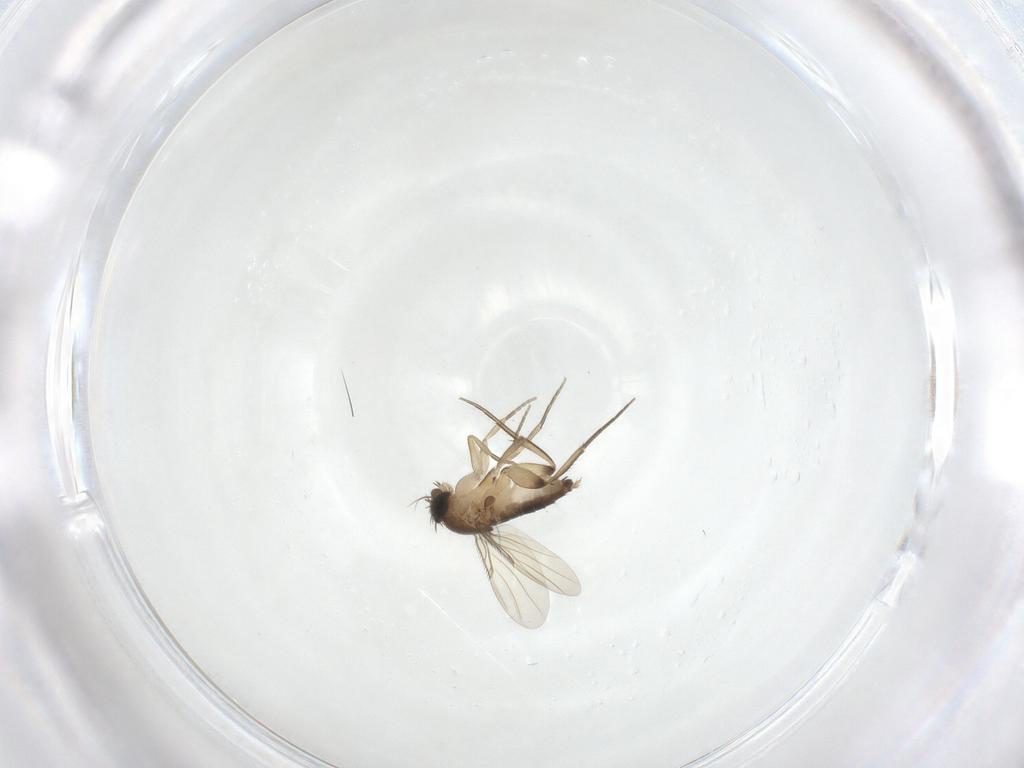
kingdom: Animalia
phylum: Arthropoda
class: Insecta
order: Diptera
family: Phoridae
